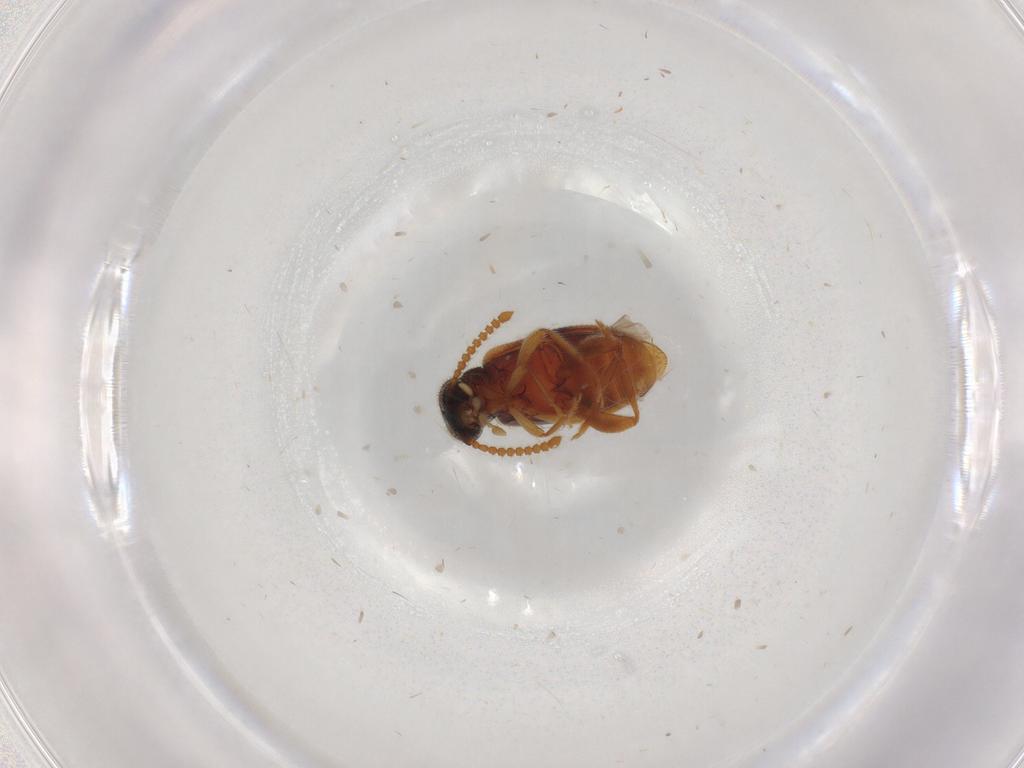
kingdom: Animalia
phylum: Arthropoda
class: Insecta
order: Coleoptera
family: Aderidae
